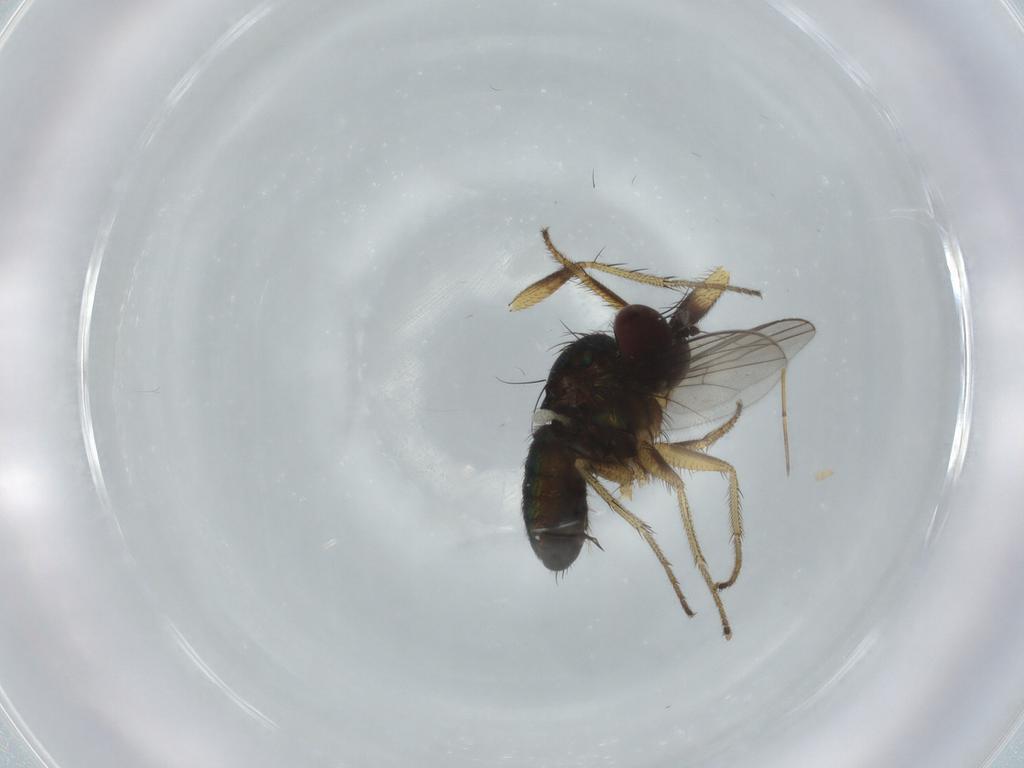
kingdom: Animalia
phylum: Arthropoda
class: Insecta
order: Diptera
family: Dolichopodidae
